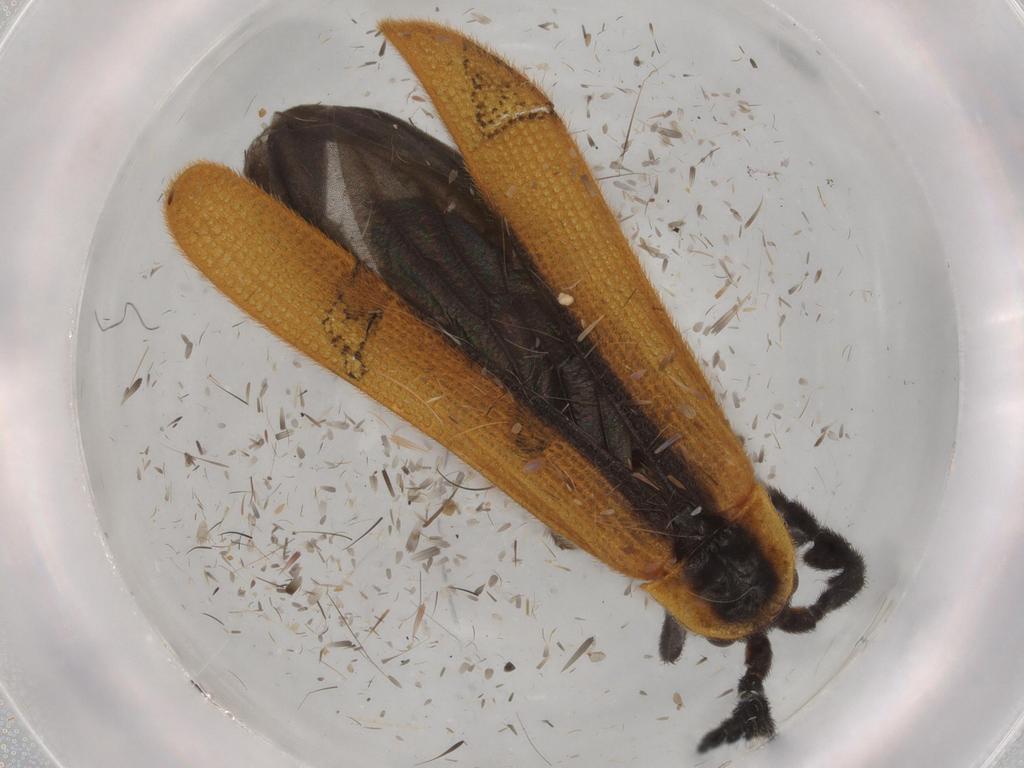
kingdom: Animalia
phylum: Arthropoda
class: Insecta
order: Coleoptera
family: Lycidae
